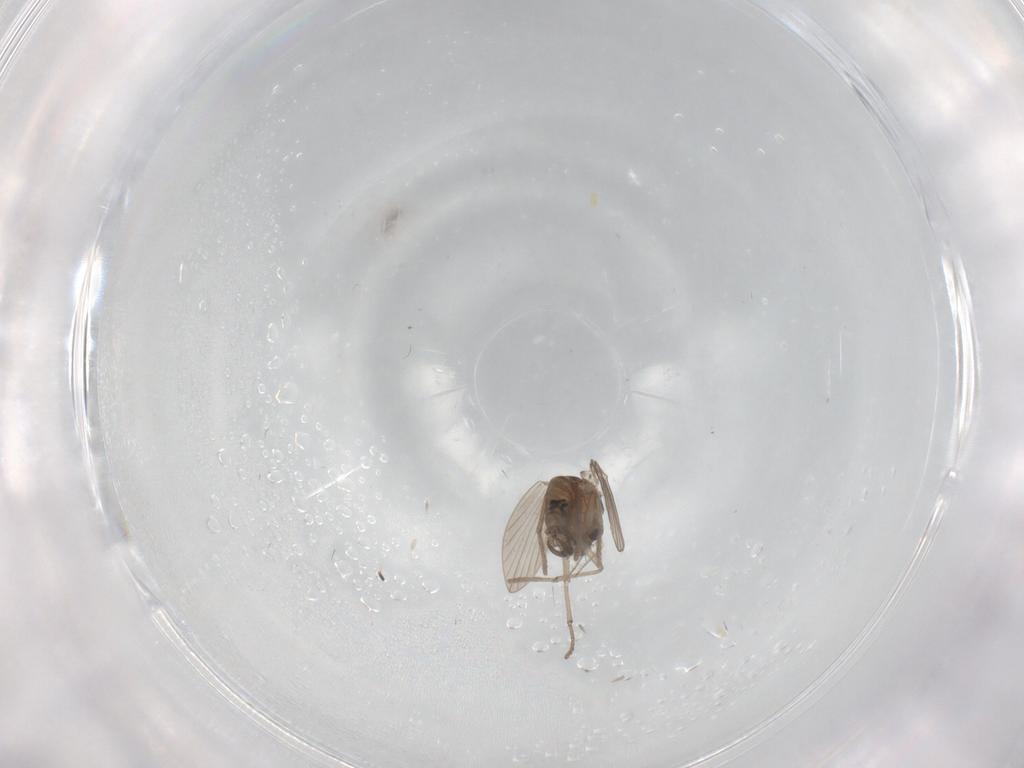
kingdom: Animalia
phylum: Arthropoda
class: Insecta
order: Diptera
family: Psychodidae
